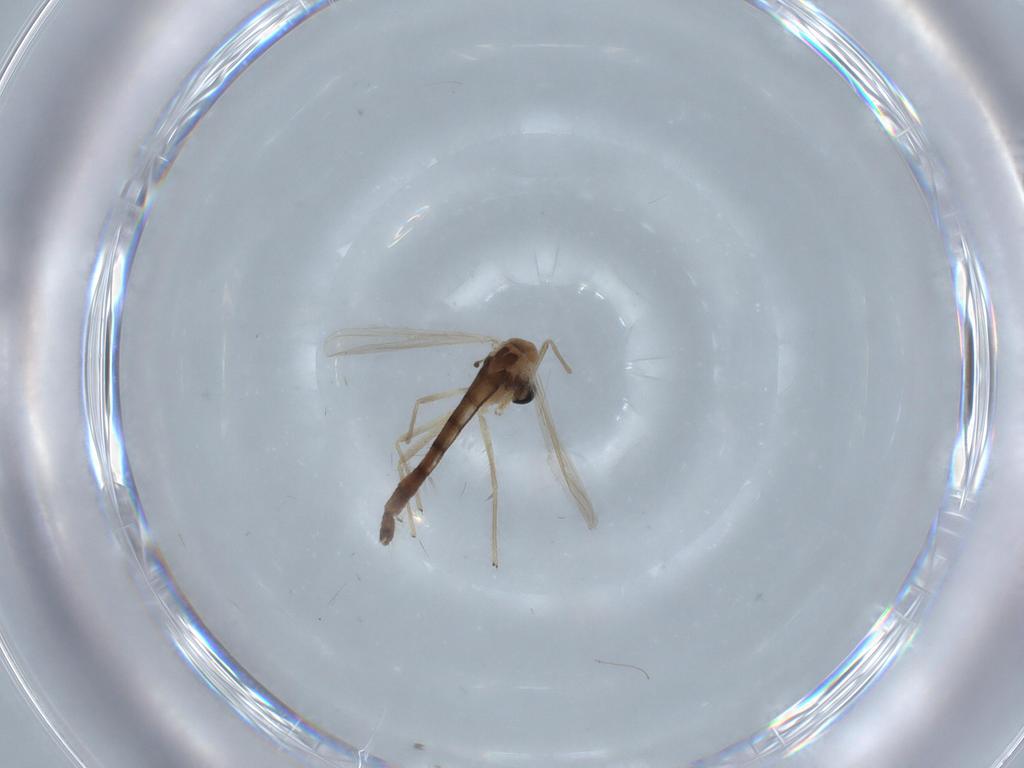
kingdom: Animalia
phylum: Arthropoda
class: Insecta
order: Diptera
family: Chironomidae
